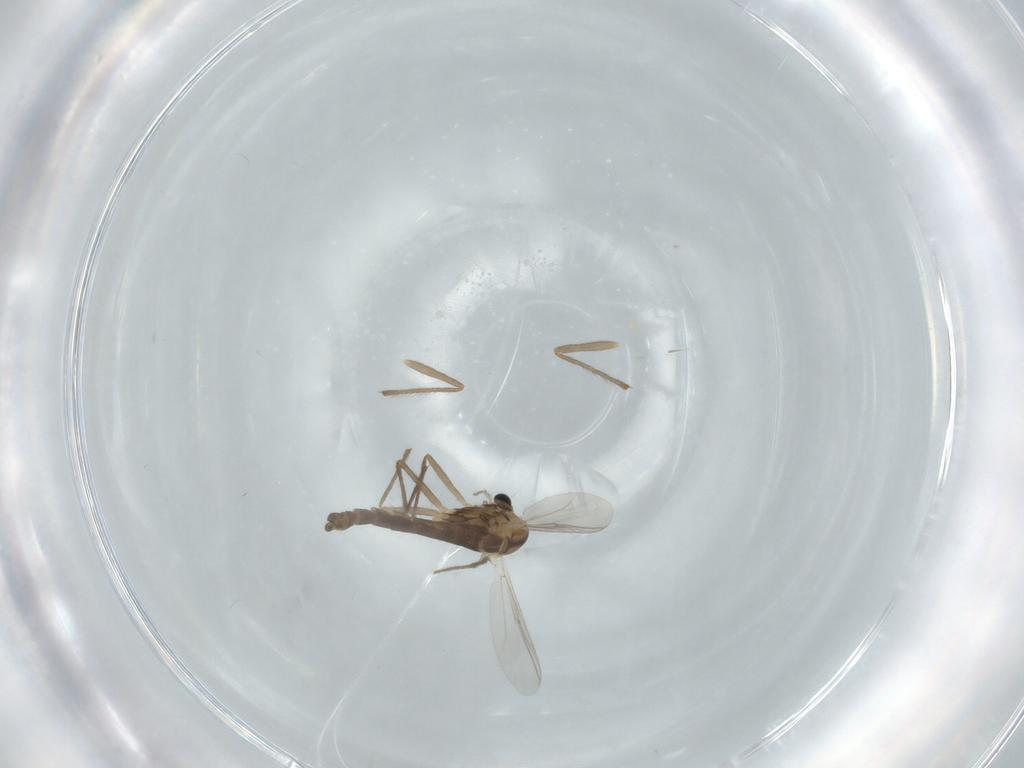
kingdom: Animalia
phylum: Arthropoda
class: Insecta
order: Diptera
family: Chironomidae
